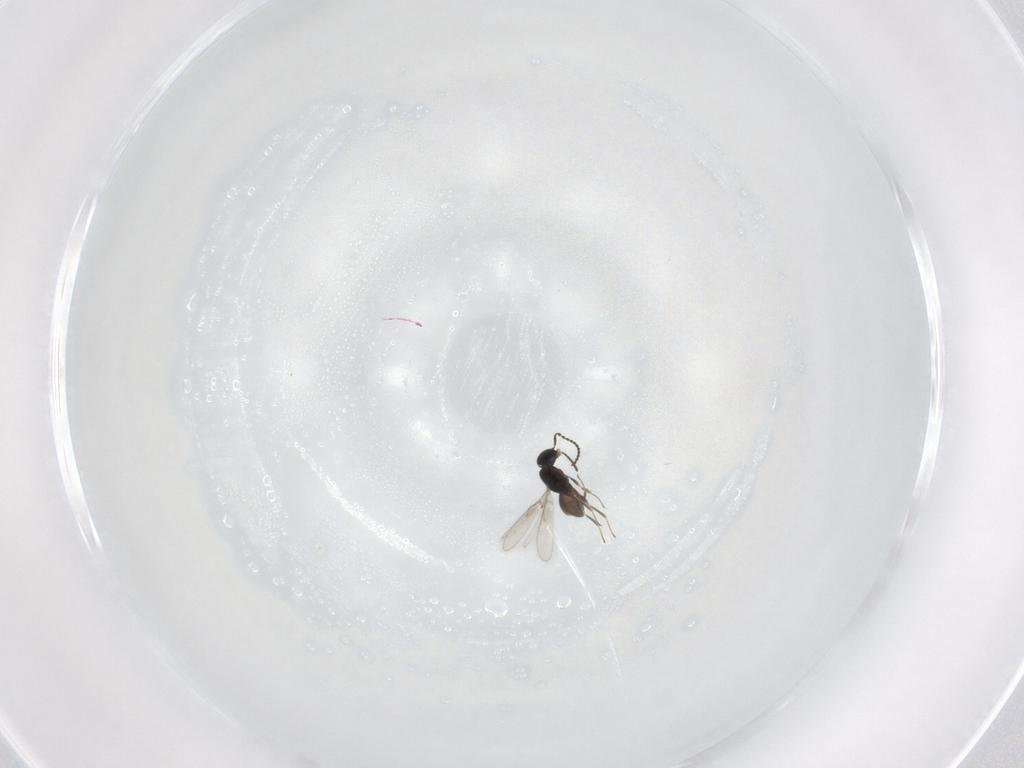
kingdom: Animalia
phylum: Arthropoda
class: Insecta
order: Hymenoptera
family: Scelionidae
